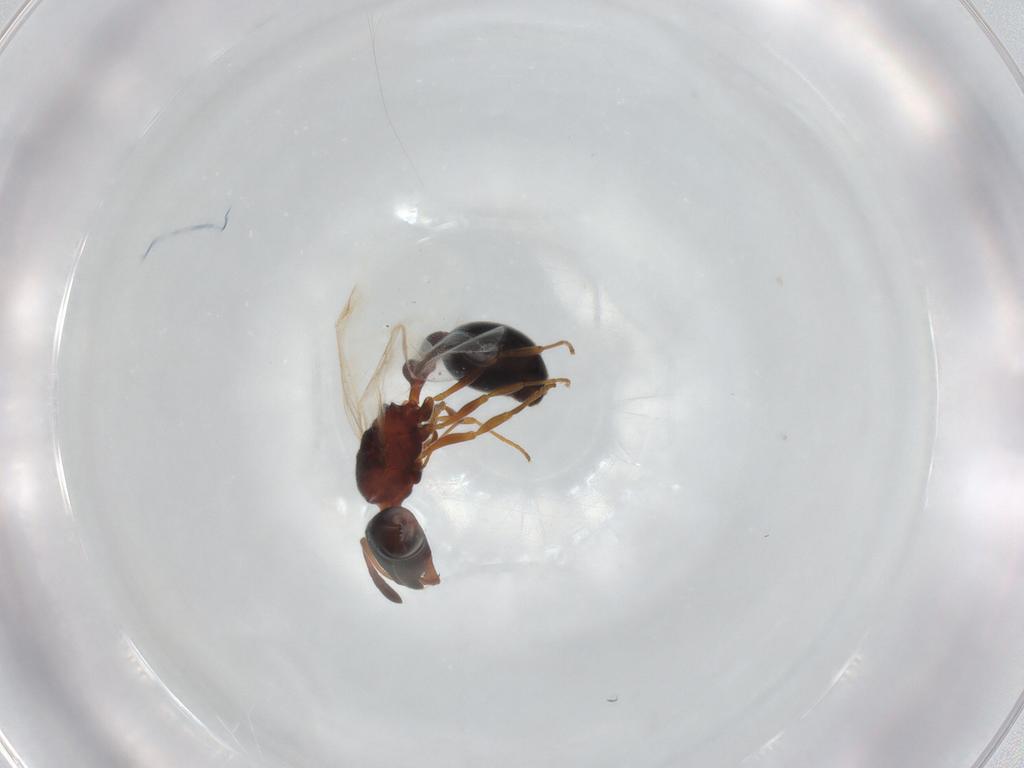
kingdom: Animalia
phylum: Arthropoda
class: Insecta
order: Hymenoptera
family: Formicidae
